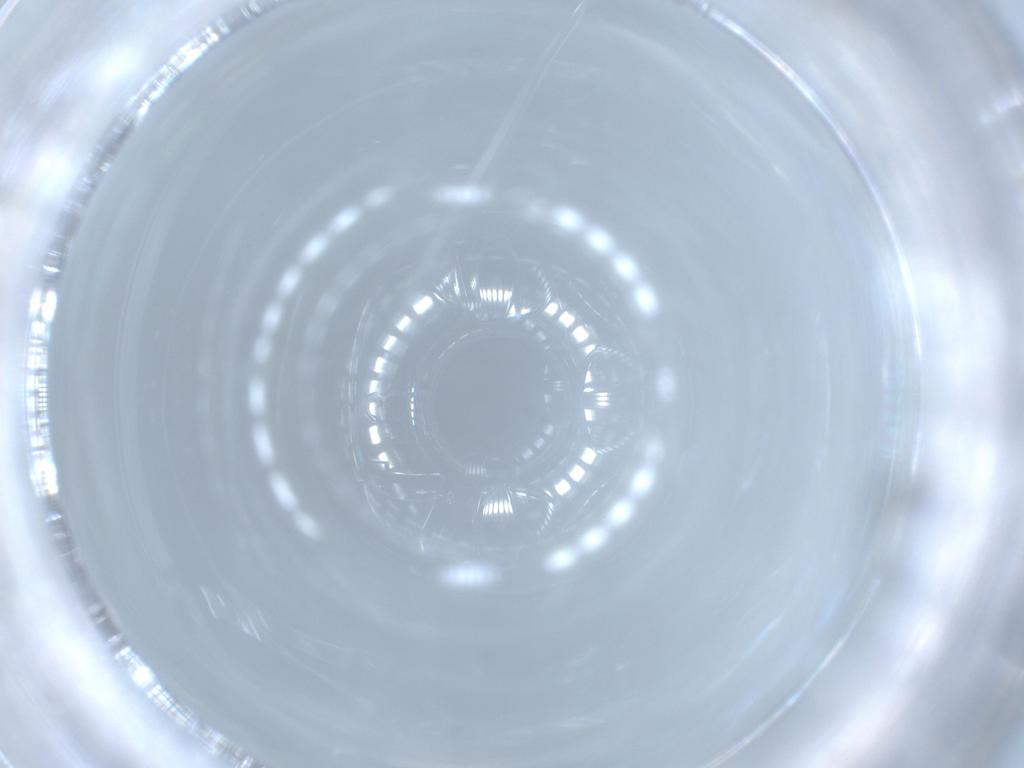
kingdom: Animalia
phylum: Arthropoda
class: Insecta
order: Diptera
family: Sciaridae
